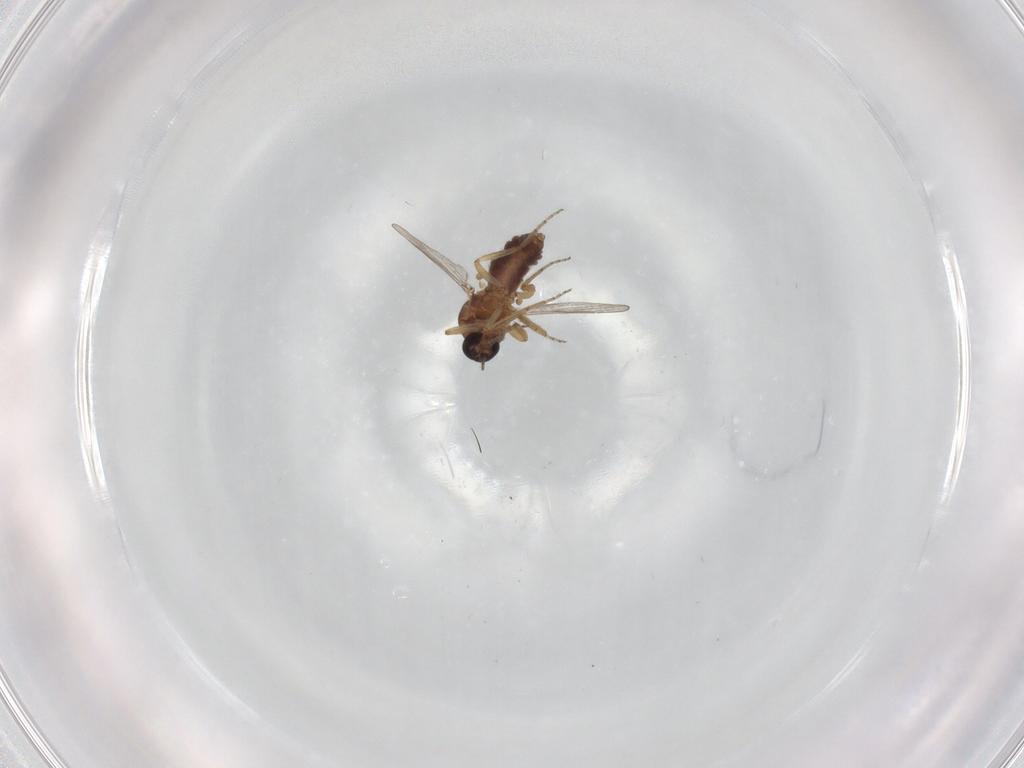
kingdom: Animalia
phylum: Arthropoda
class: Insecta
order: Diptera
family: Ceratopogonidae
